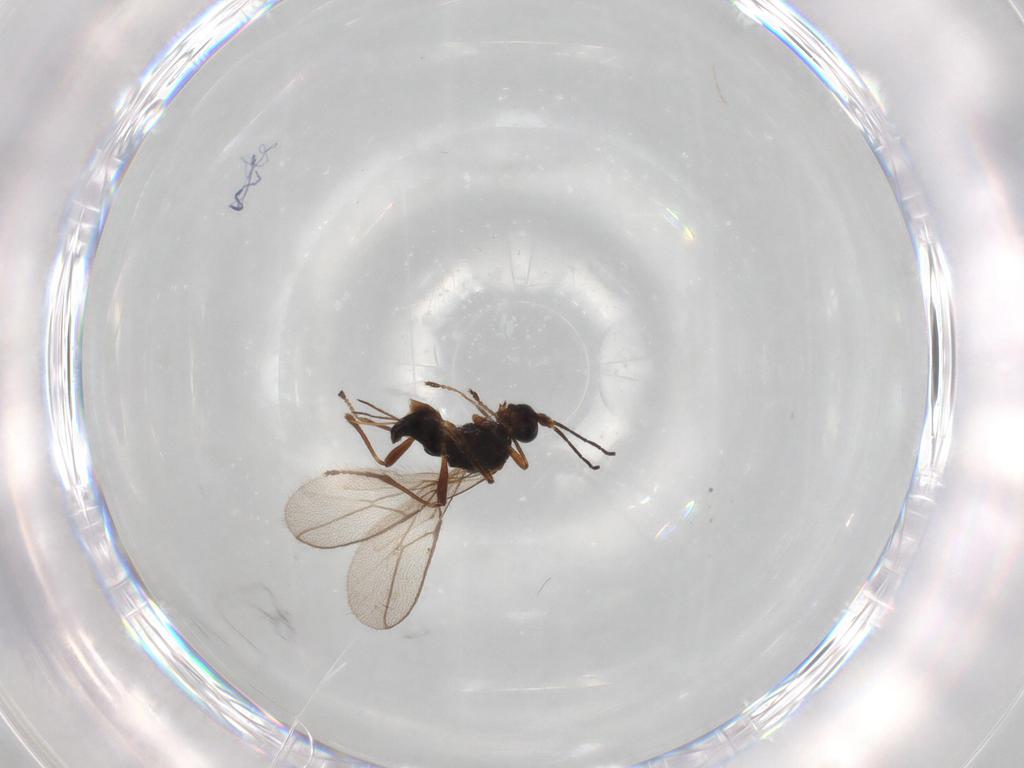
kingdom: Animalia
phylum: Arthropoda
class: Insecta
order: Hymenoptera
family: Braconidae
